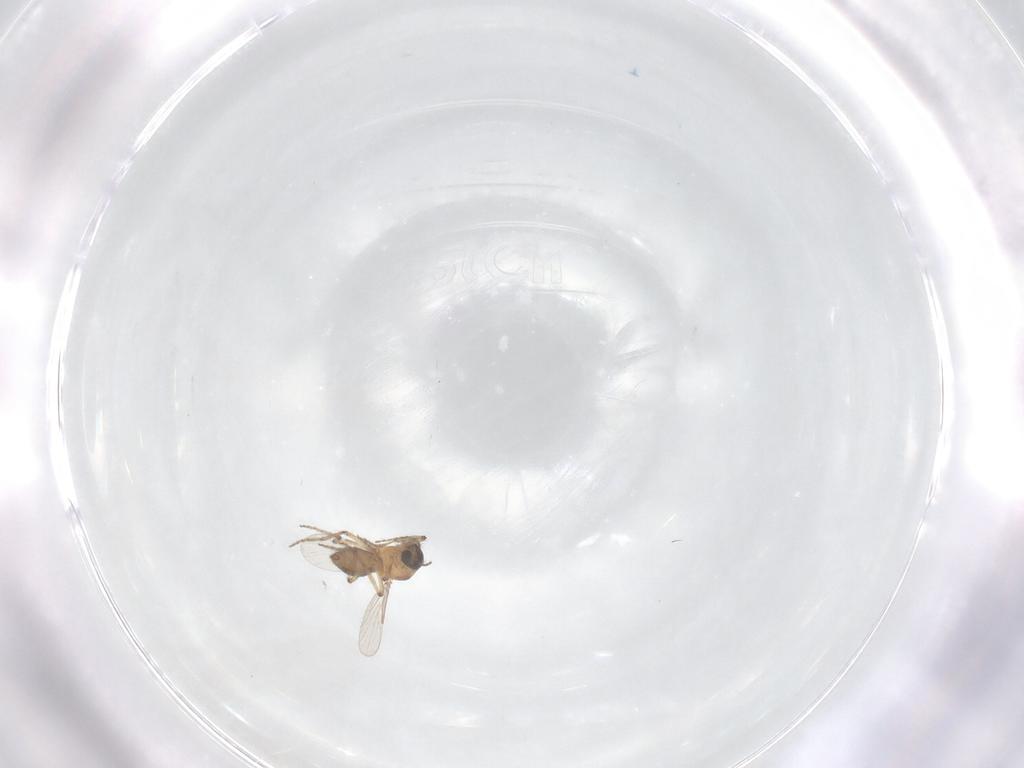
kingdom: Animalia
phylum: Arthropoda
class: Insecta
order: Diptera
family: Ceratopogonidae
